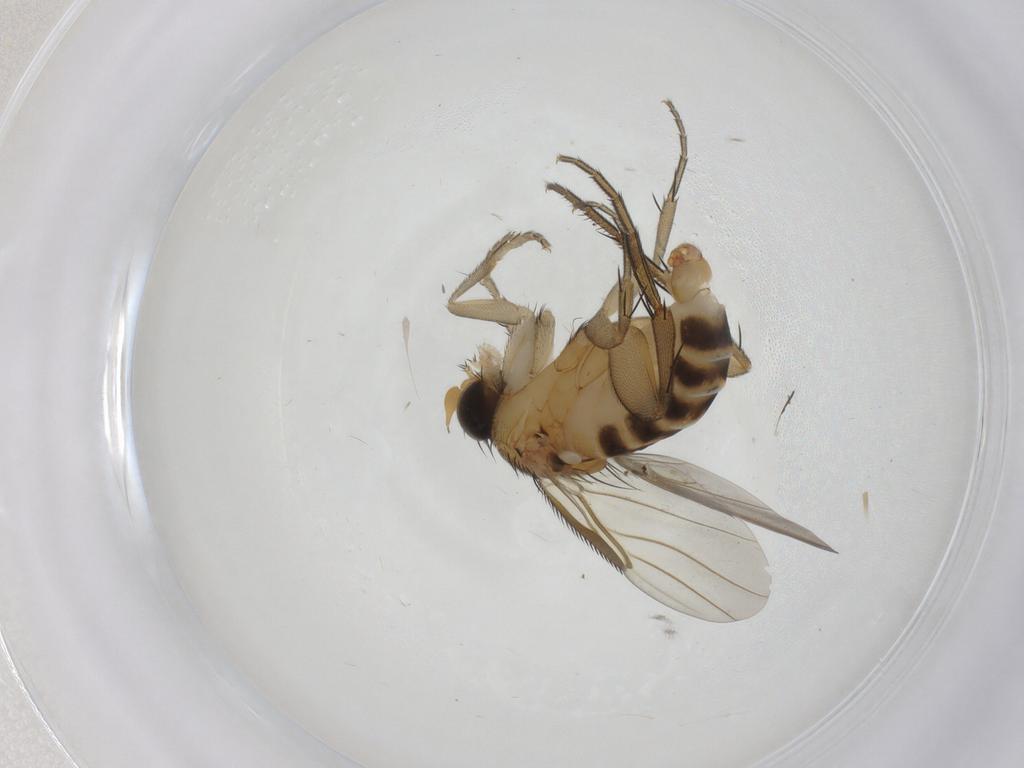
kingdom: Animalia
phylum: Arthropoda
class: Insecta
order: Diptera
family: Phoridae
